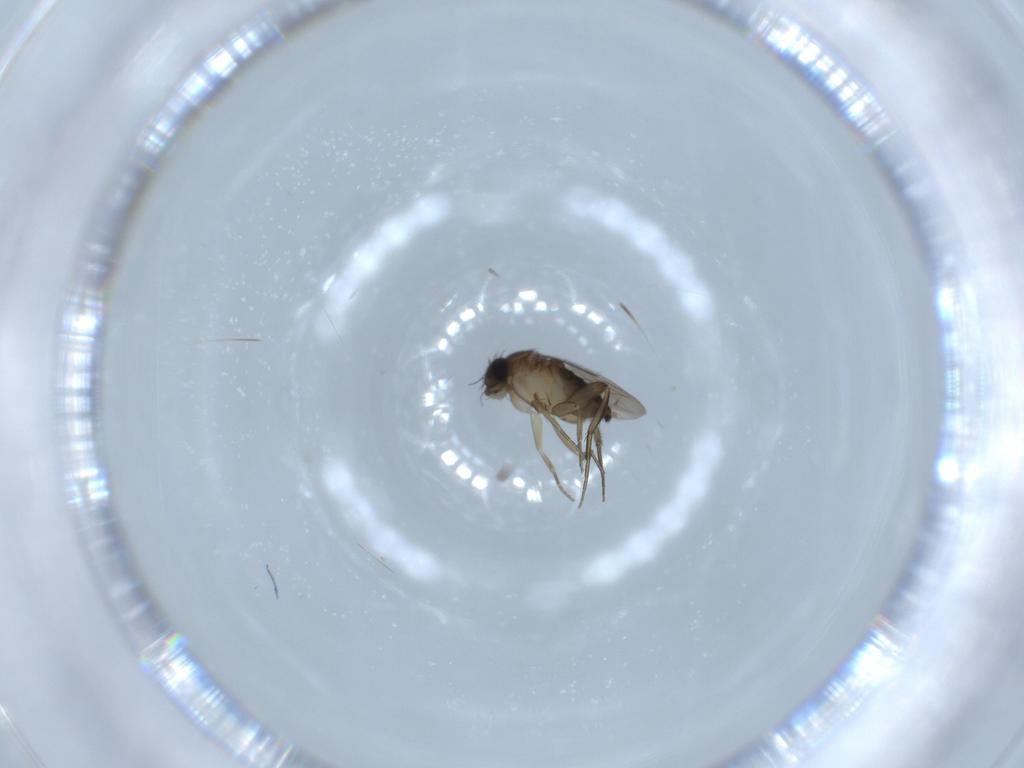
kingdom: Animalia
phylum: Arthropoda
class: Insecta
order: Diptera
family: Phoridae
